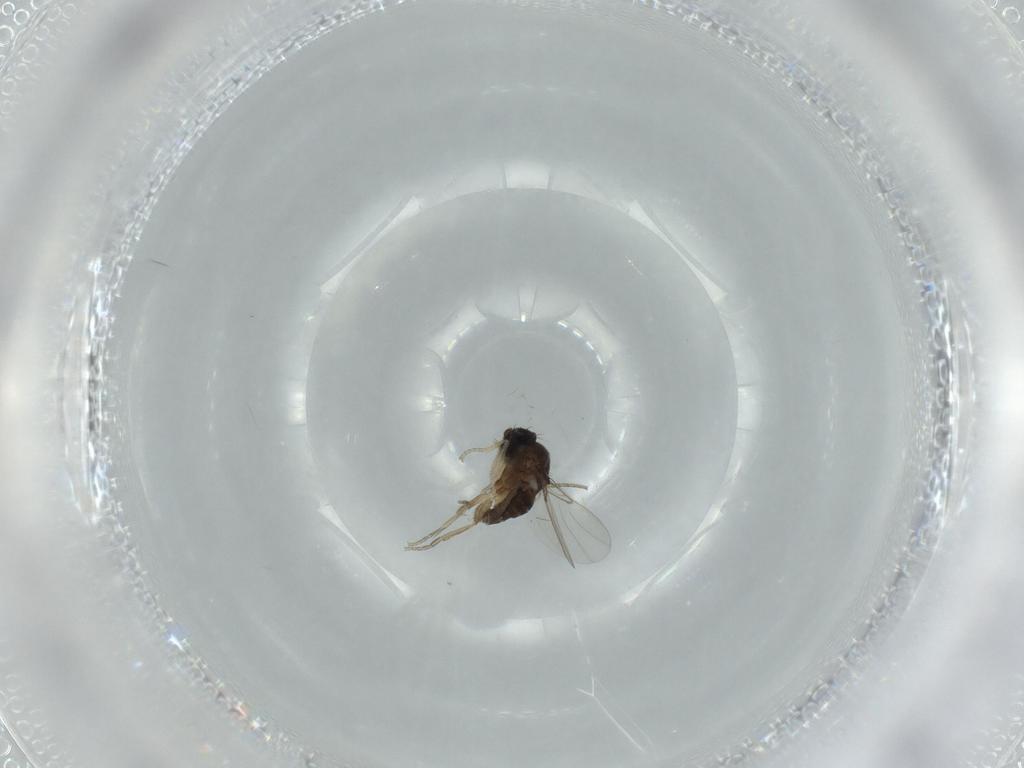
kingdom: Animalia
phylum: Arthropoda
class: Insecta
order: Diptera
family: Phoridae
